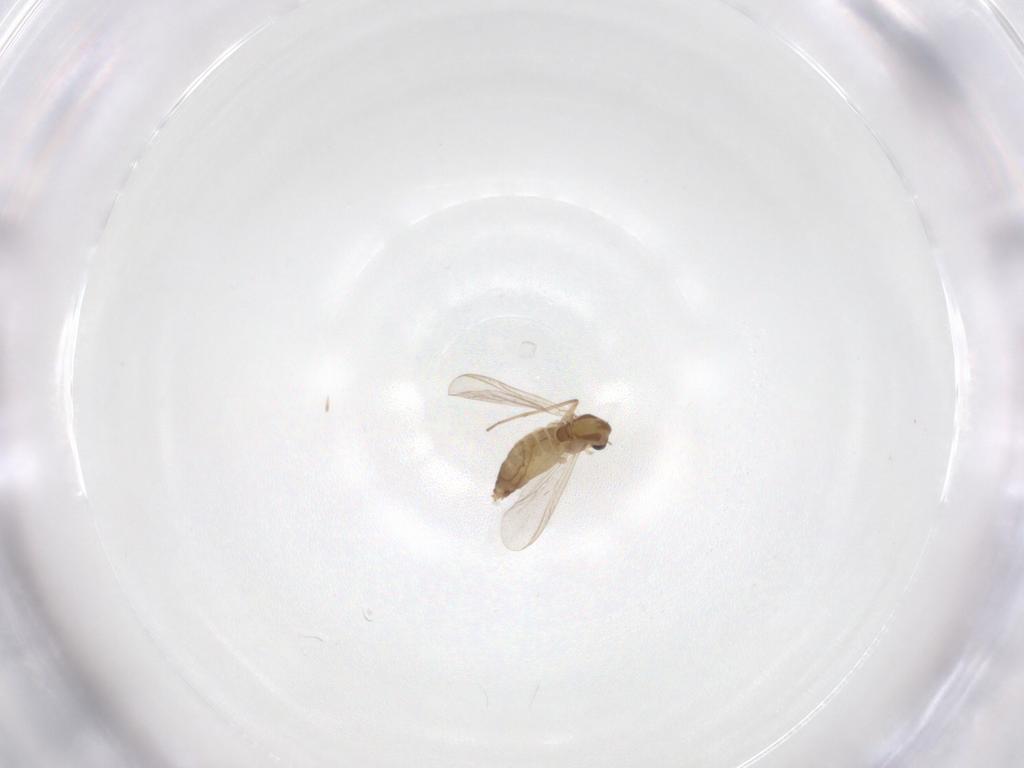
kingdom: Animalia
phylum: Arthropoda
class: Insecta
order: Diptera
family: Chironomidae
